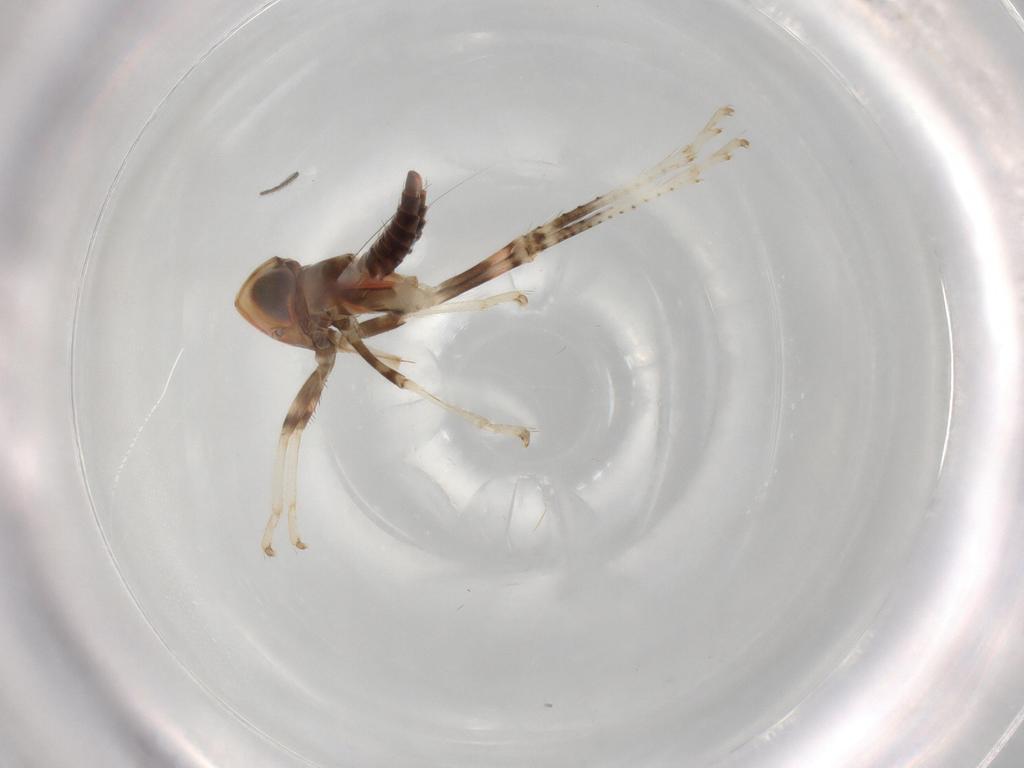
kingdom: Animalia
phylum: Arthropoda
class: Insecta
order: Hemiptera
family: Cicadellidae
